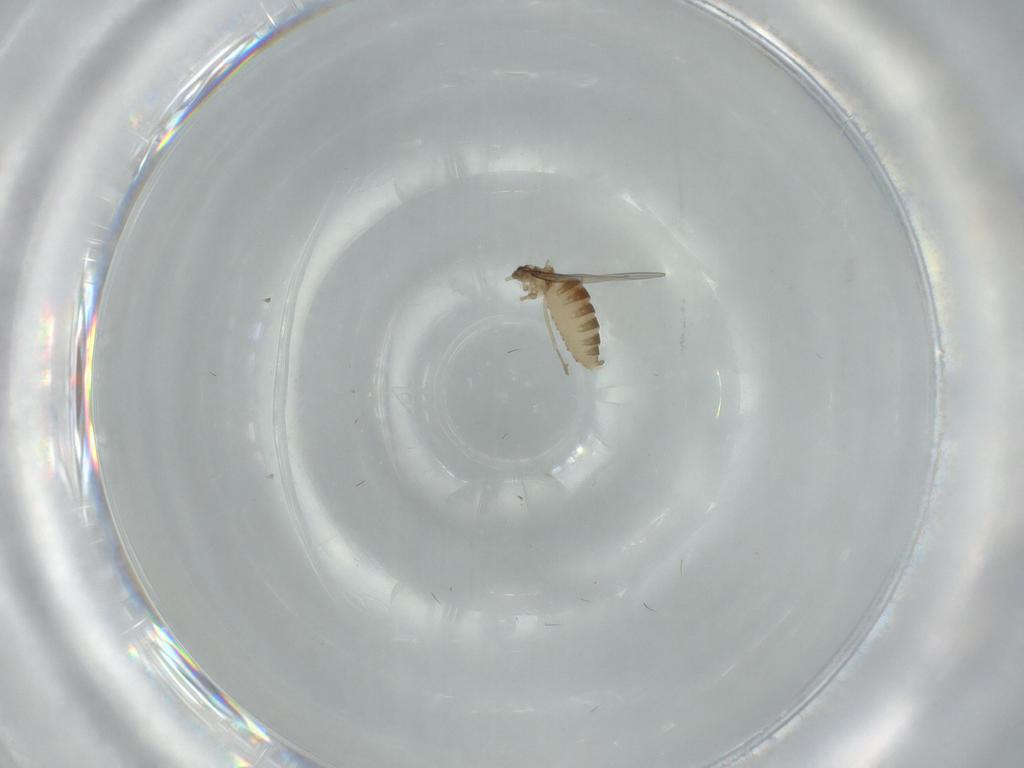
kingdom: Animalia
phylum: Arthropoda
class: Insecta
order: Diptera
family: Cecidomyiidae
